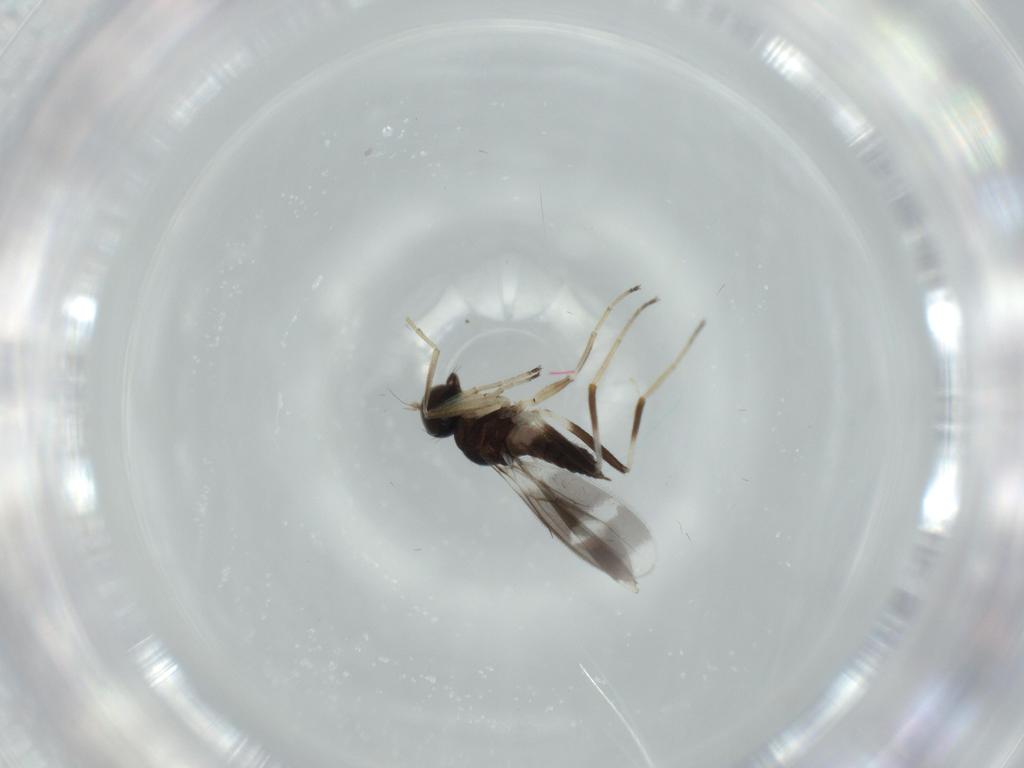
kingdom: Animalia
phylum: Arthropoda
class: Insecta
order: Diptera
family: Hybotidae
